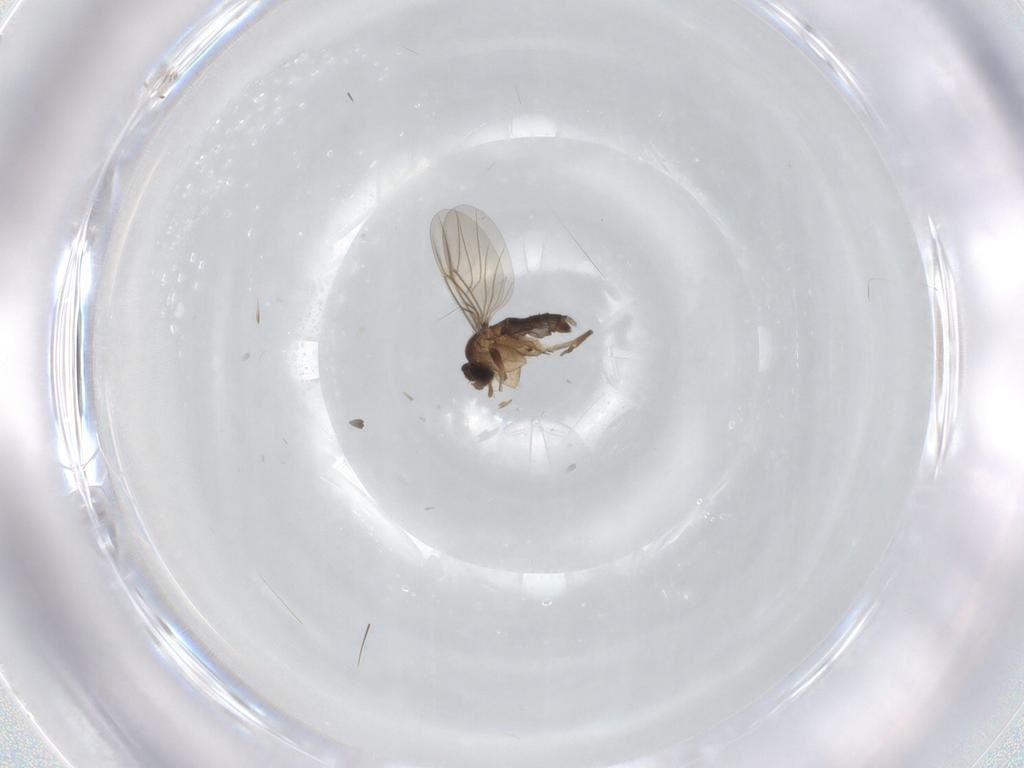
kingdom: Animalia
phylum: Arthropoda
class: Insecta
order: Diptera
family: Phoridae
